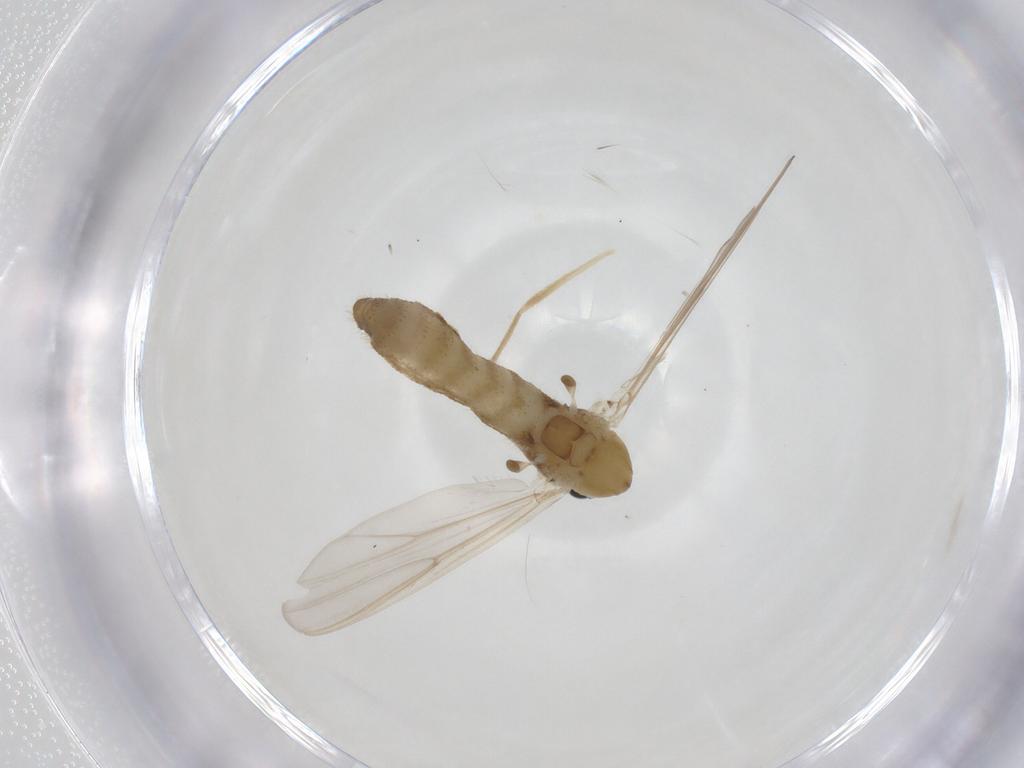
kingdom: Animalia
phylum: Arthropoda
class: Insecta
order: Diptera
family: Chironomidae
